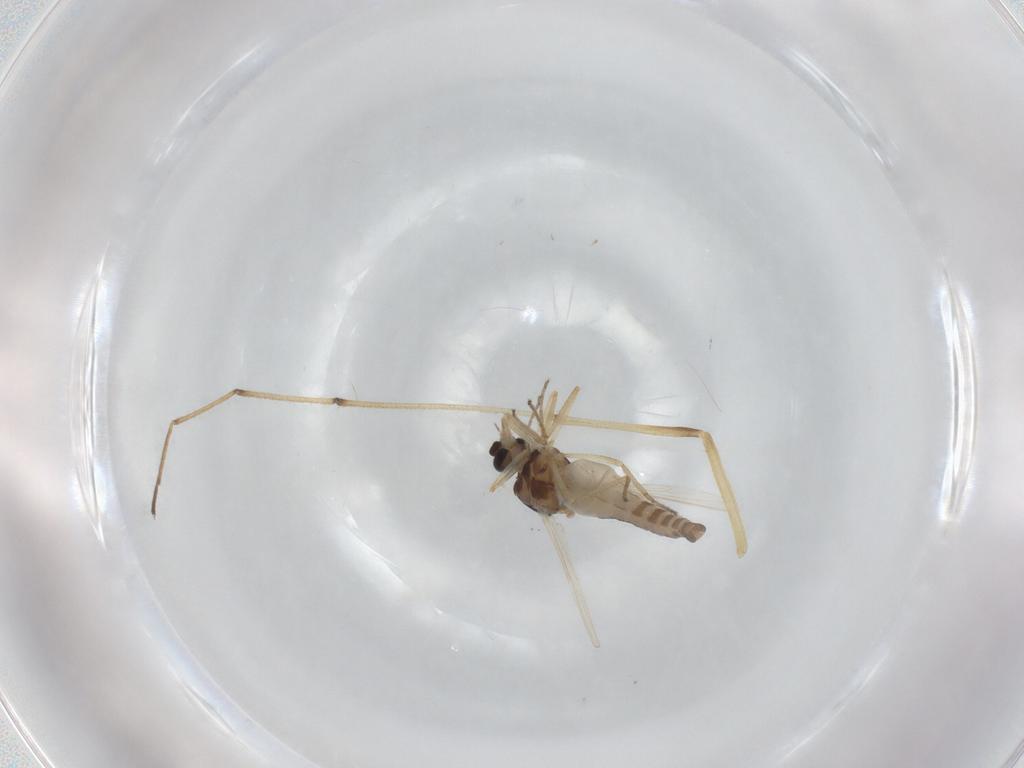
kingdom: Animalia
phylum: Arthropoda
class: Insecta
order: Diptera
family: Ceratopogonidae
